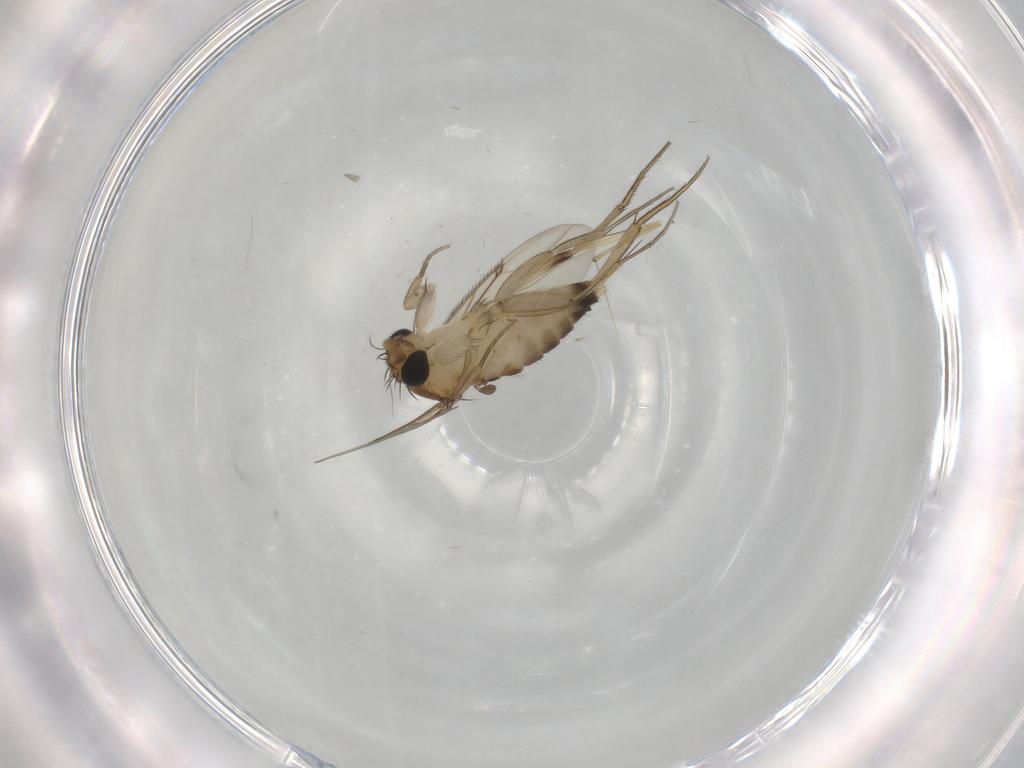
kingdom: Animalia
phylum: Arthropoda
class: Insecta
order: Diptera
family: Phoridae
